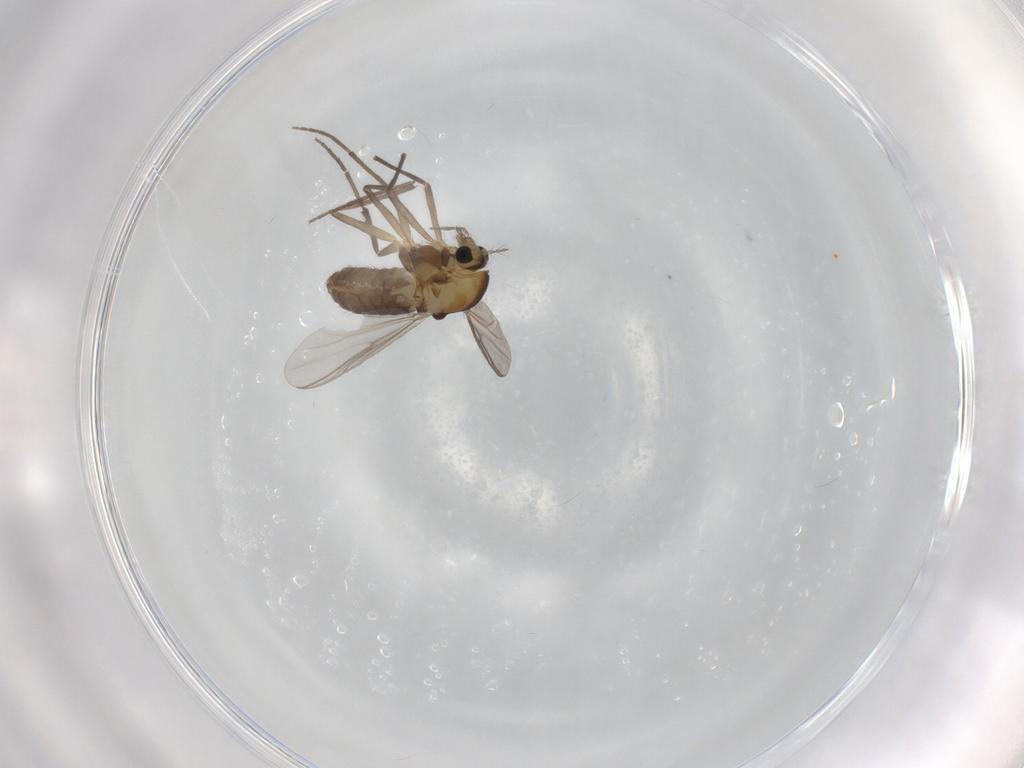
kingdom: Animalia
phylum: Arthropoda
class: Insecta
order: Diptera
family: Chironomidae
